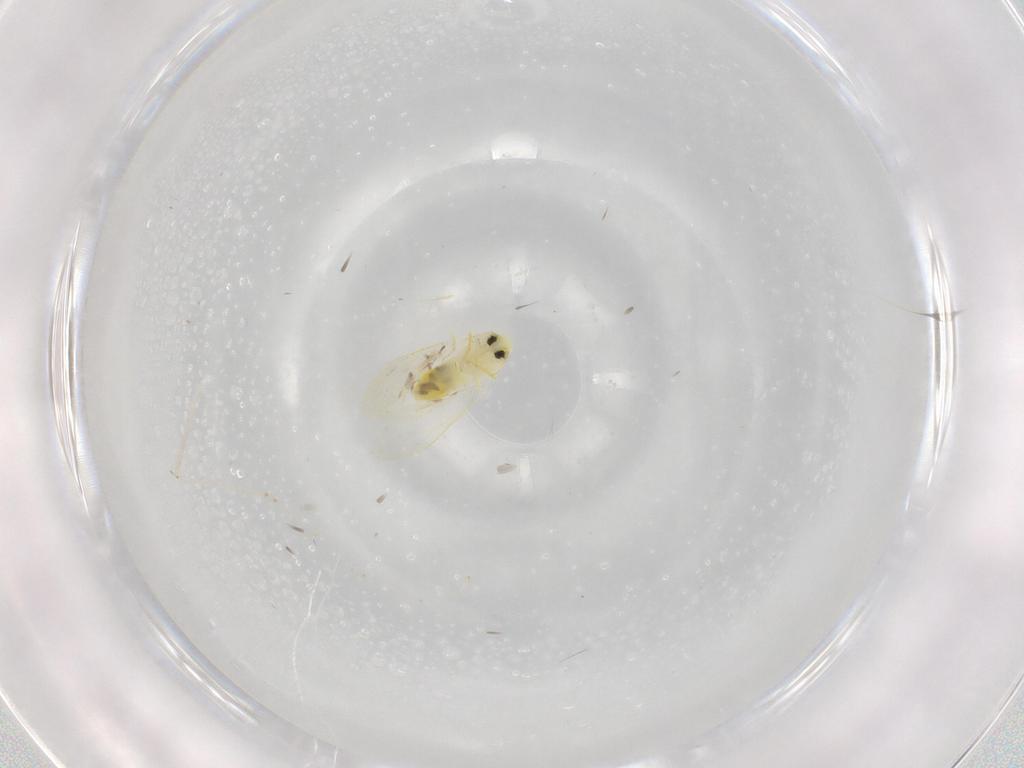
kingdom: Animalia
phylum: Arthropoda
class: Insecta
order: Hemiptera
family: Aleyrodidae
